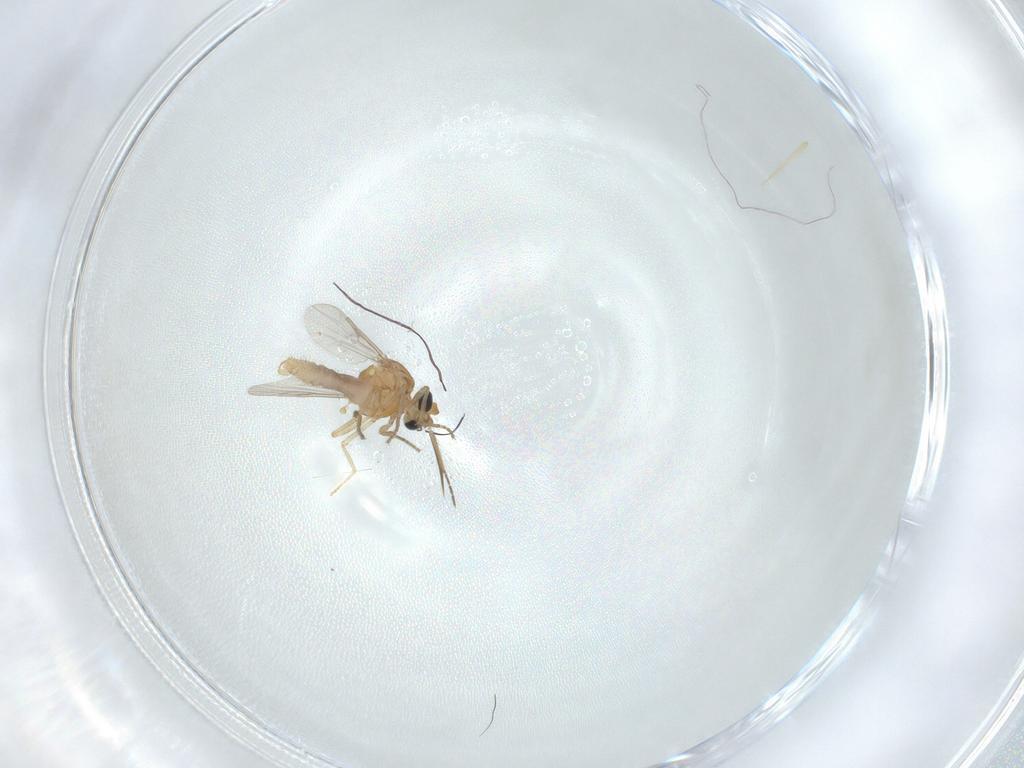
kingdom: Animalia
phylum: Arthropoda
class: Insecta
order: Diptera
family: Ceratopogonidae
